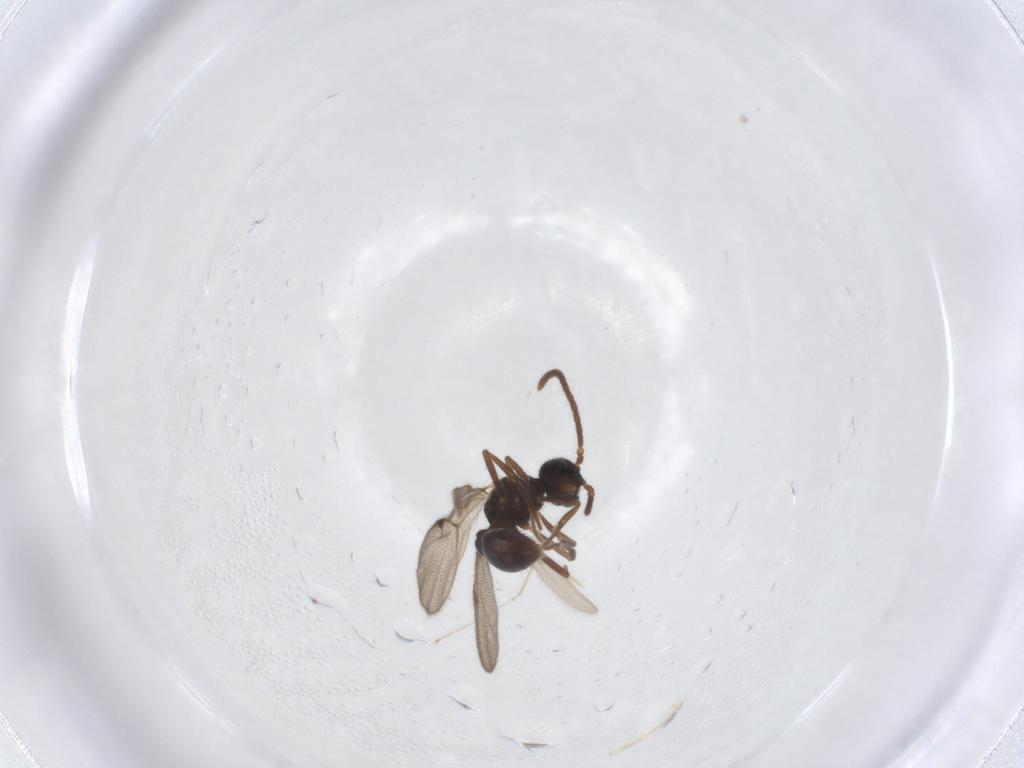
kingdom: Animalia
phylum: Arthropoda
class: Insecta
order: Hymenoptera
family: Formicidae
